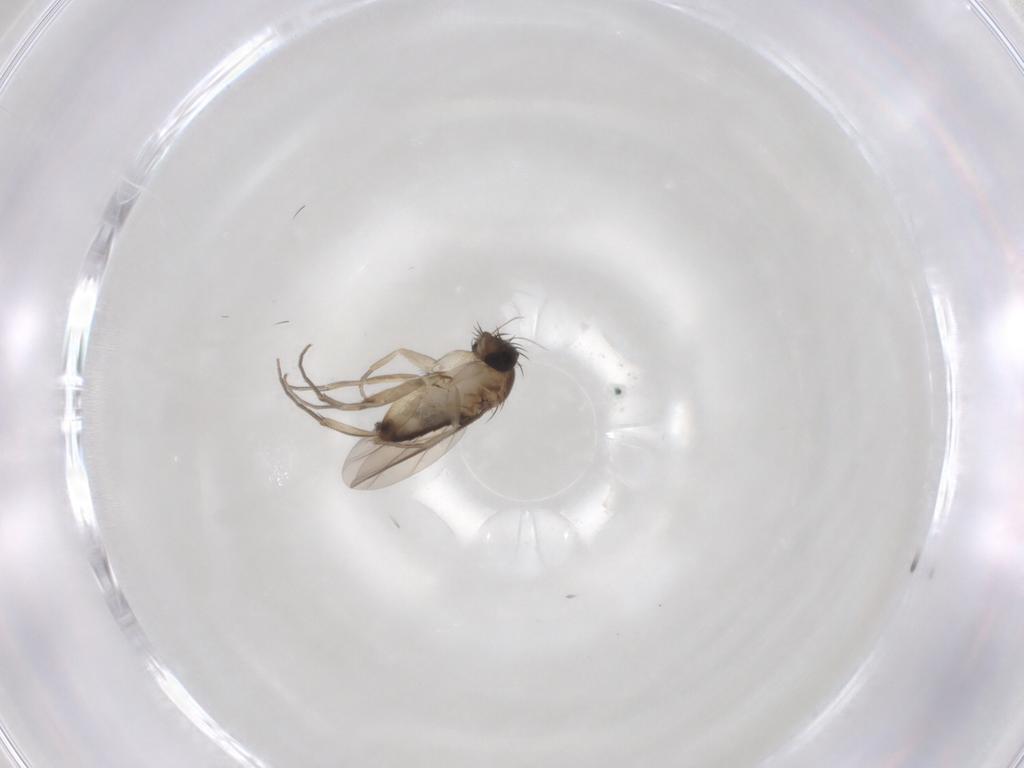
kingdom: Animalia
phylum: Arthropoda
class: Insecta
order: Diptera
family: Phoridae
